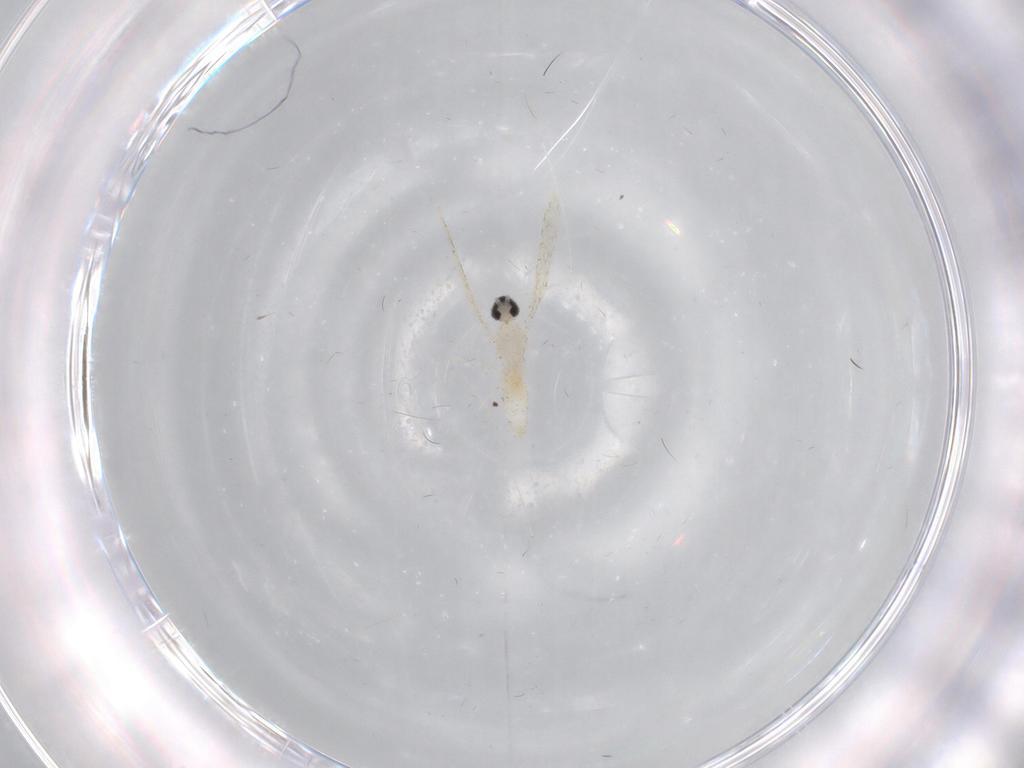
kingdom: Animalia
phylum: Arthropoda
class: Insecta
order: Diptera
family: Cecidomyiidae
